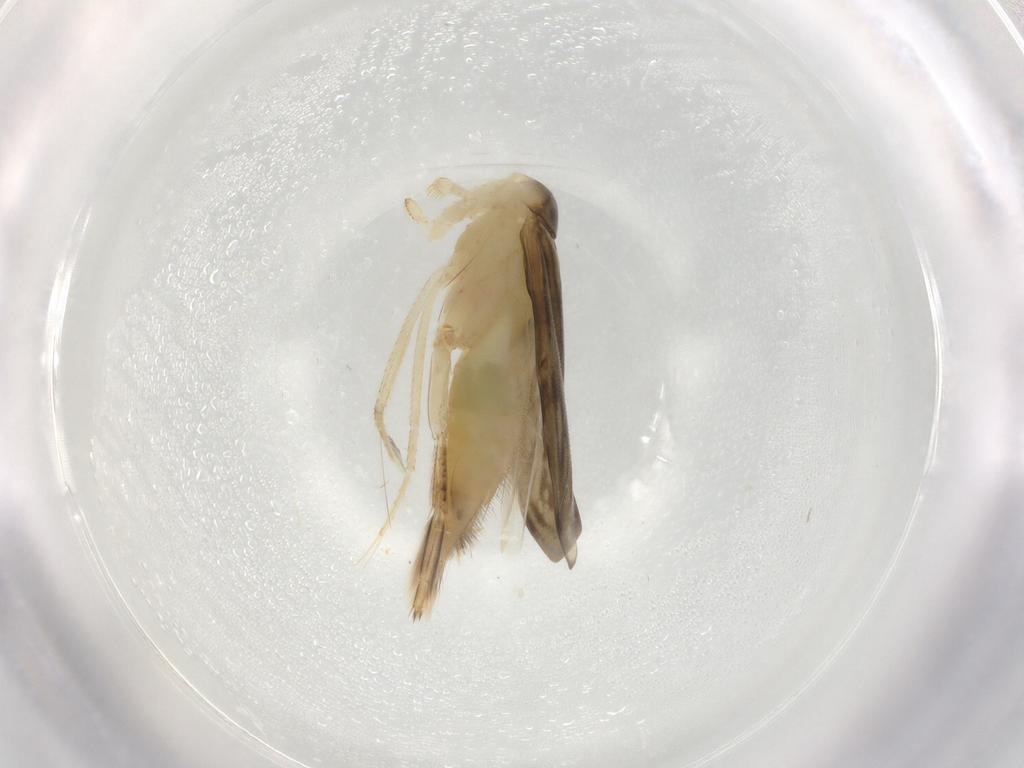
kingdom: Animalia
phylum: Arthropoda
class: Insecta
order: Hemiptera
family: Corixidae
